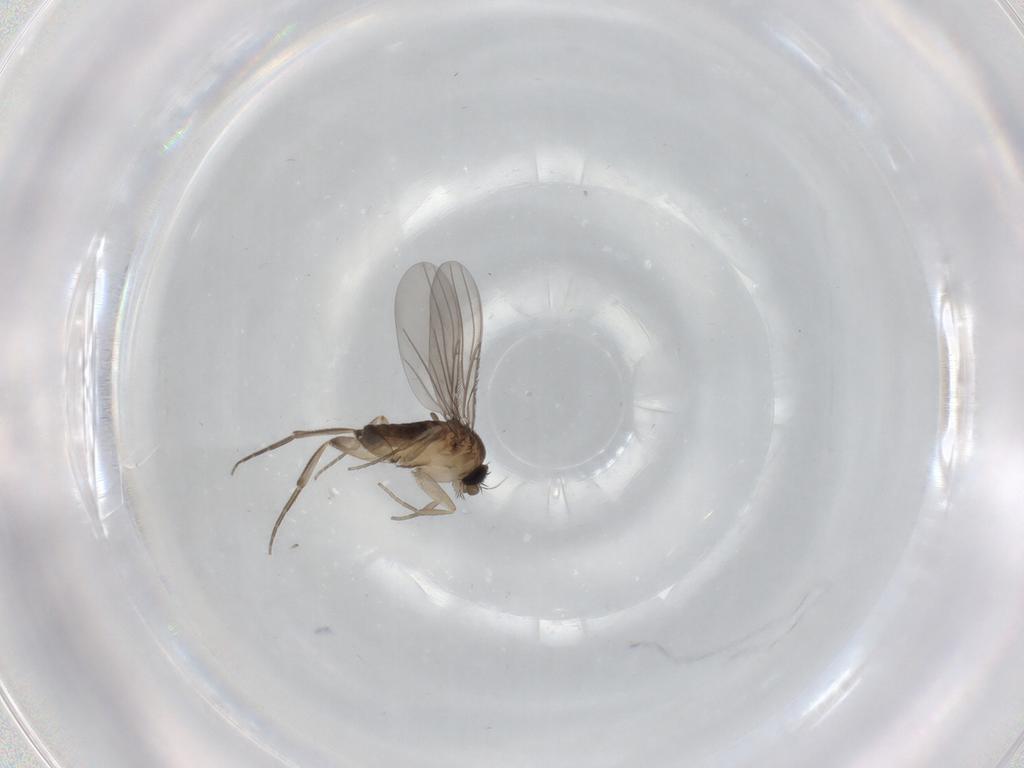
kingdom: Animalia
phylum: Arthropoda
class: Insecta
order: Diptera
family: Phoridae
